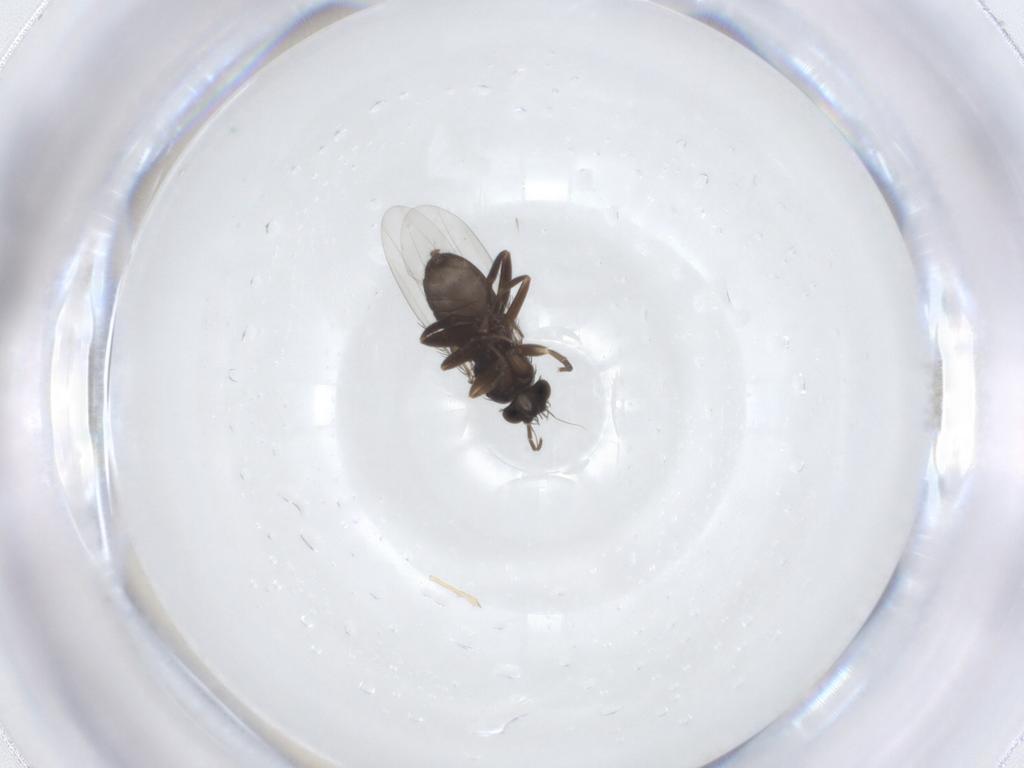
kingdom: Animalia
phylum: Arthropoda
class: Insecta
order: Diptera
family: Phoridae
